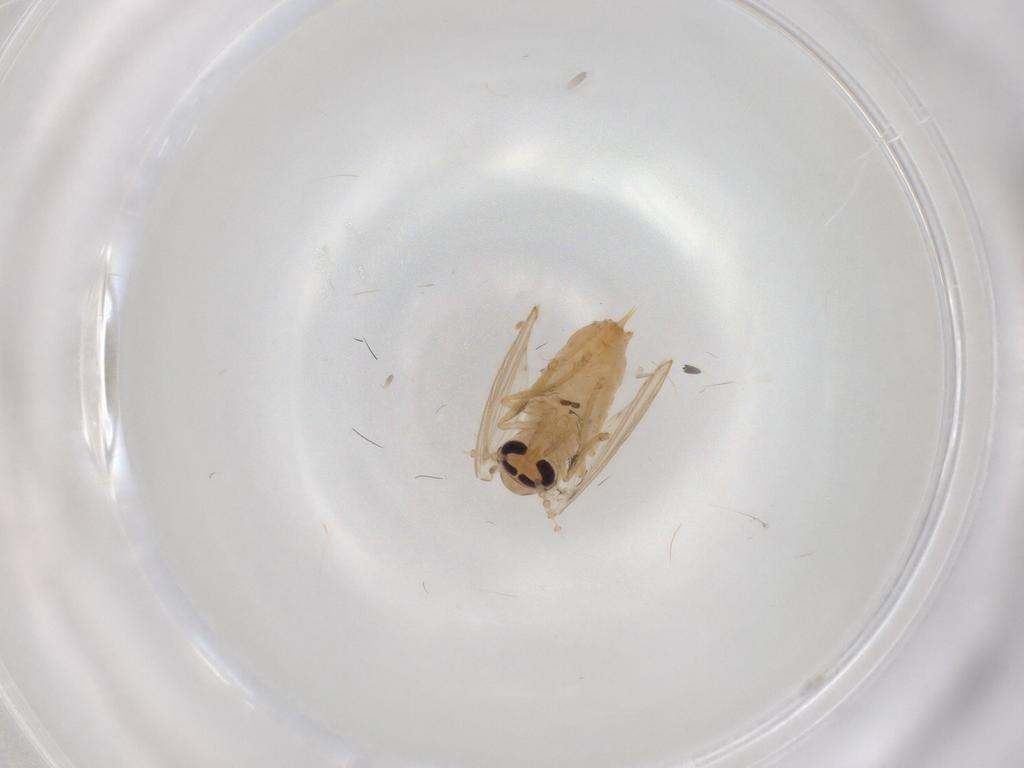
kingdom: Animalia
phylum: Arthropoda
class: Insecta
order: Diptera
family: Psychodidae
